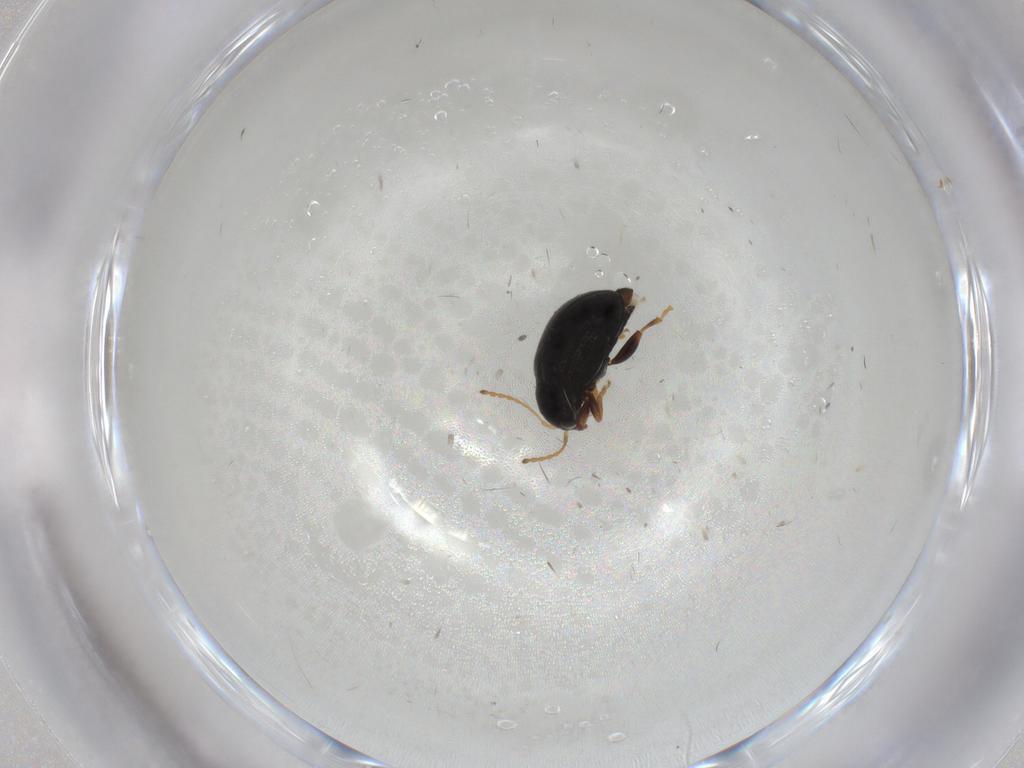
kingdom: Animalia
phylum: Arthropoda
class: Insecta
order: Coleoptera
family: Chrysomelidae
